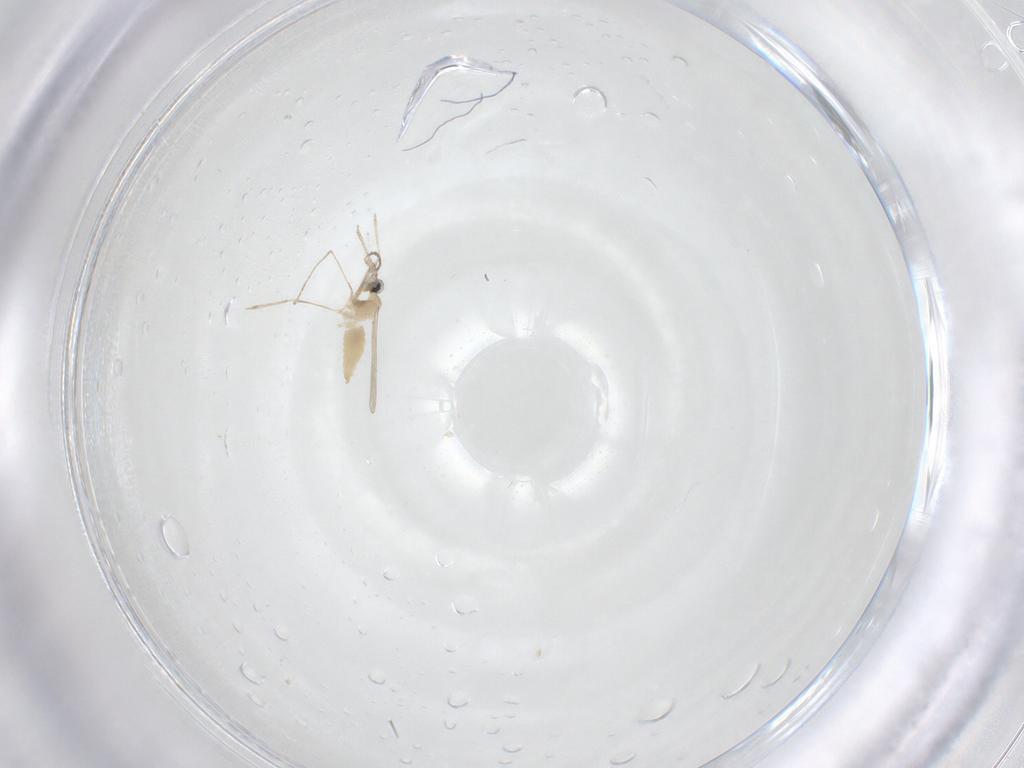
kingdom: Animalia
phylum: Arthropoda
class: Insecta
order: Diptera
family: Cecidomyiidae
